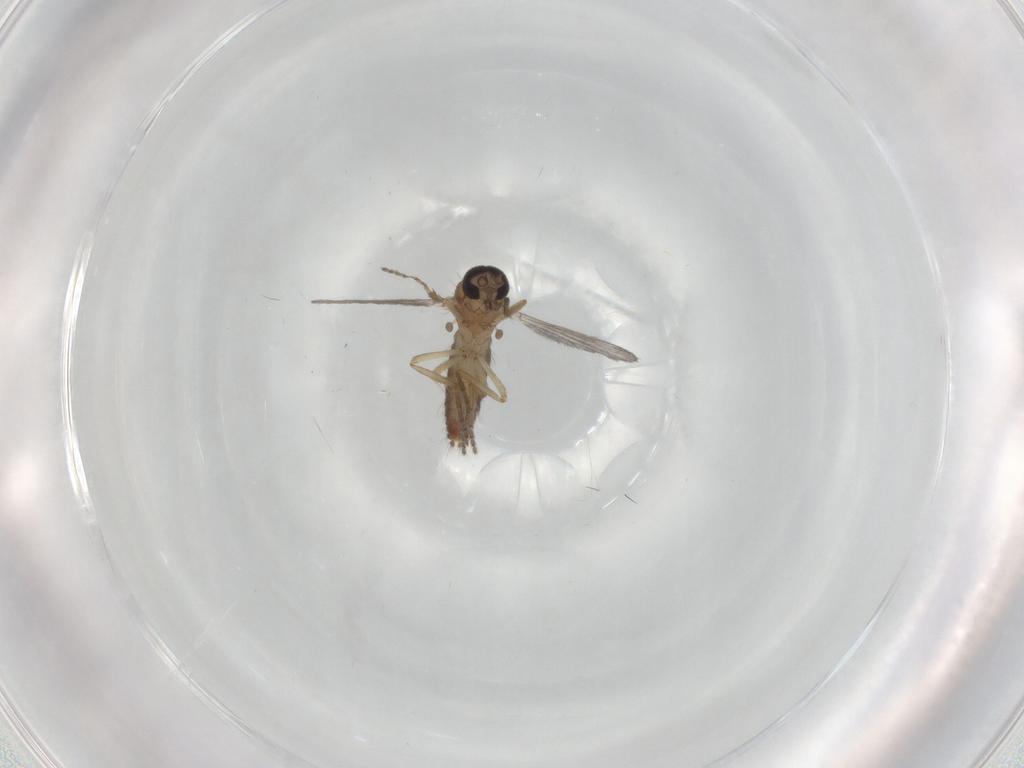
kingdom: Animalia
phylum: Arthropoda
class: Insecta
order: Diptera
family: Ceratopogonidae
